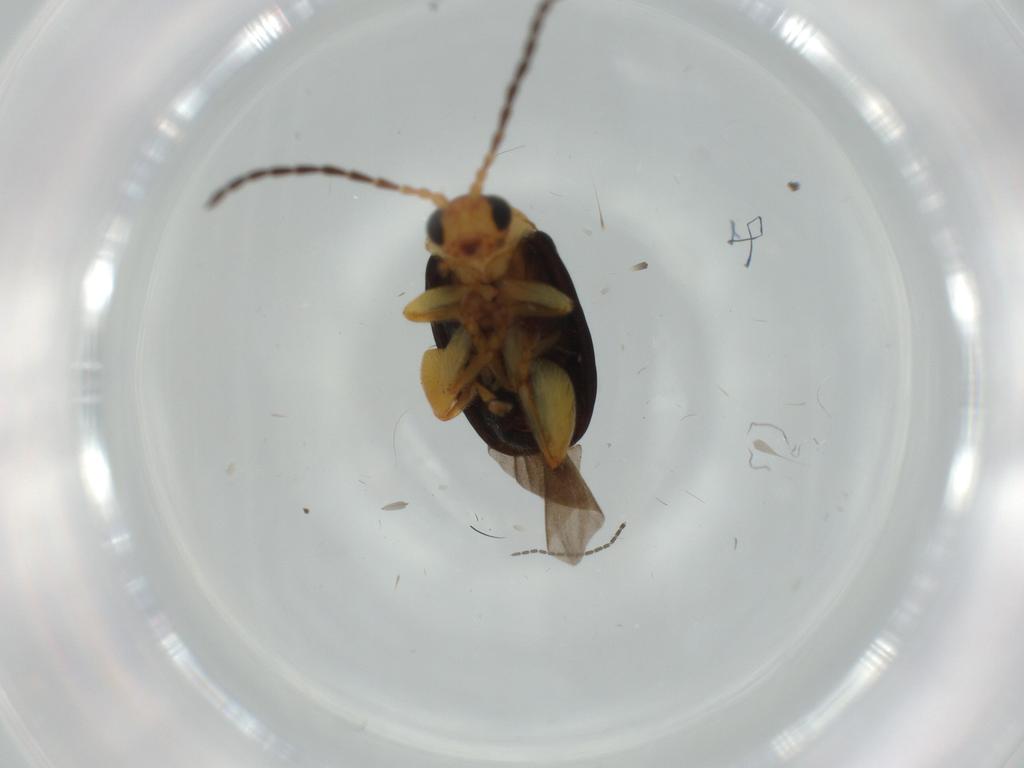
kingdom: Animalia
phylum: Arthropoda
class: Insecta
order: Coleoptera
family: Chrysomelidae
